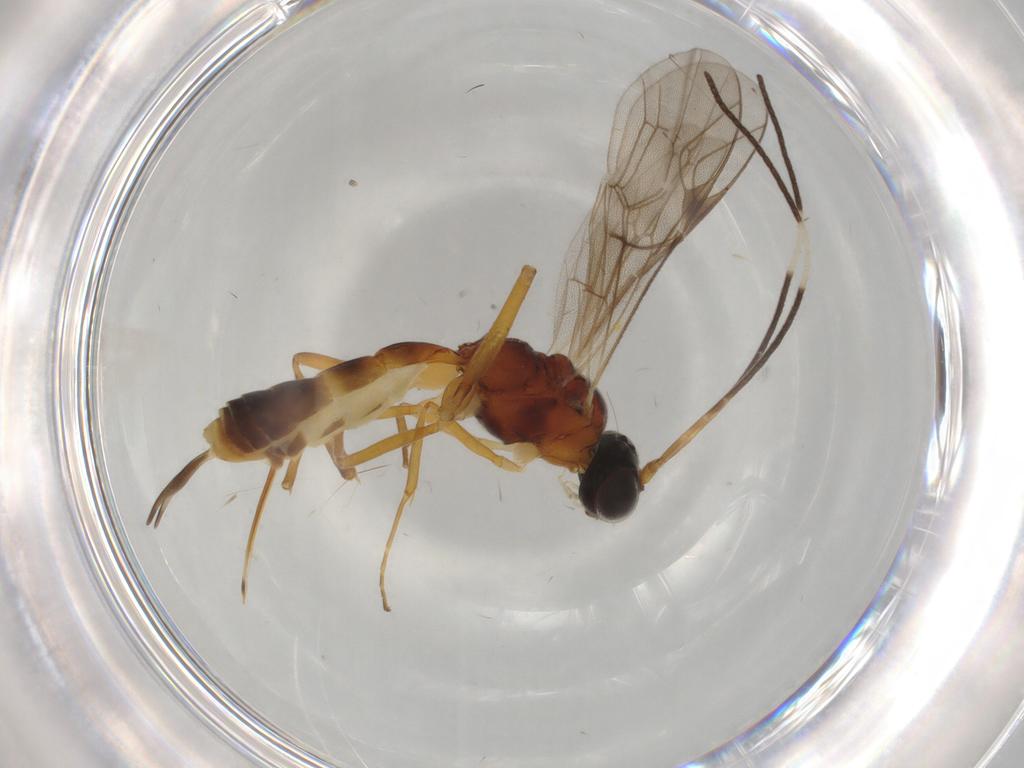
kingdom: Animalia
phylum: Arthropoda
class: Insecta
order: Hymenoptera
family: Ichneumonidae
